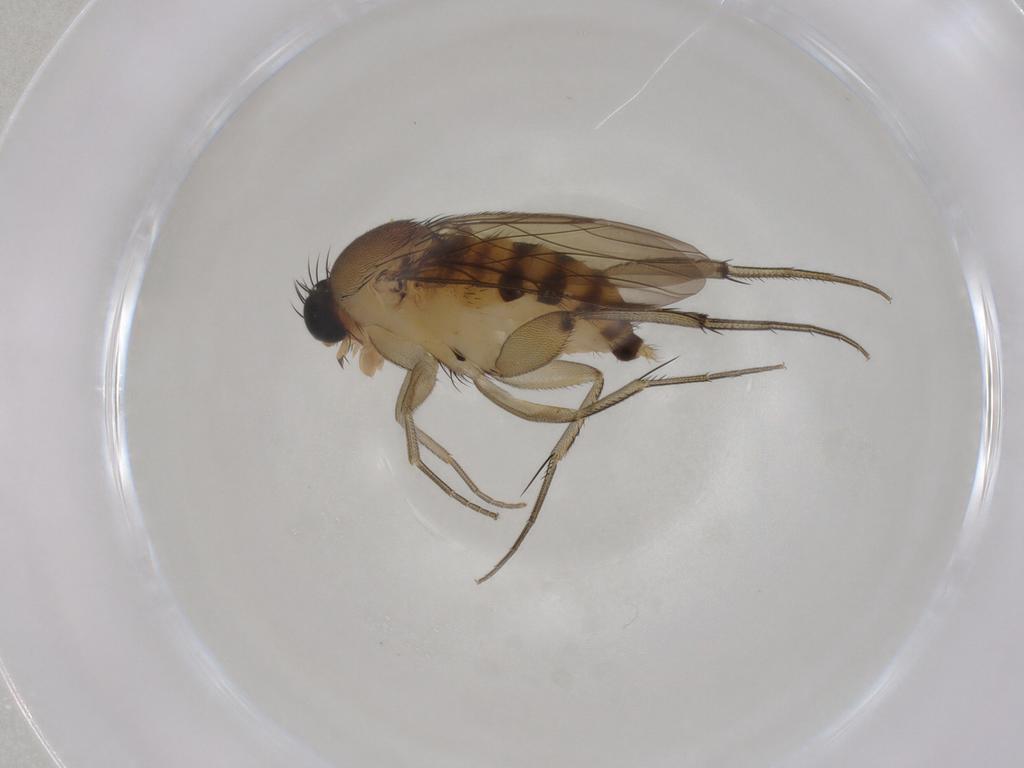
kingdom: Animalia
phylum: Arthropoda
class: Insecta
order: Diptera
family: Phoridae
